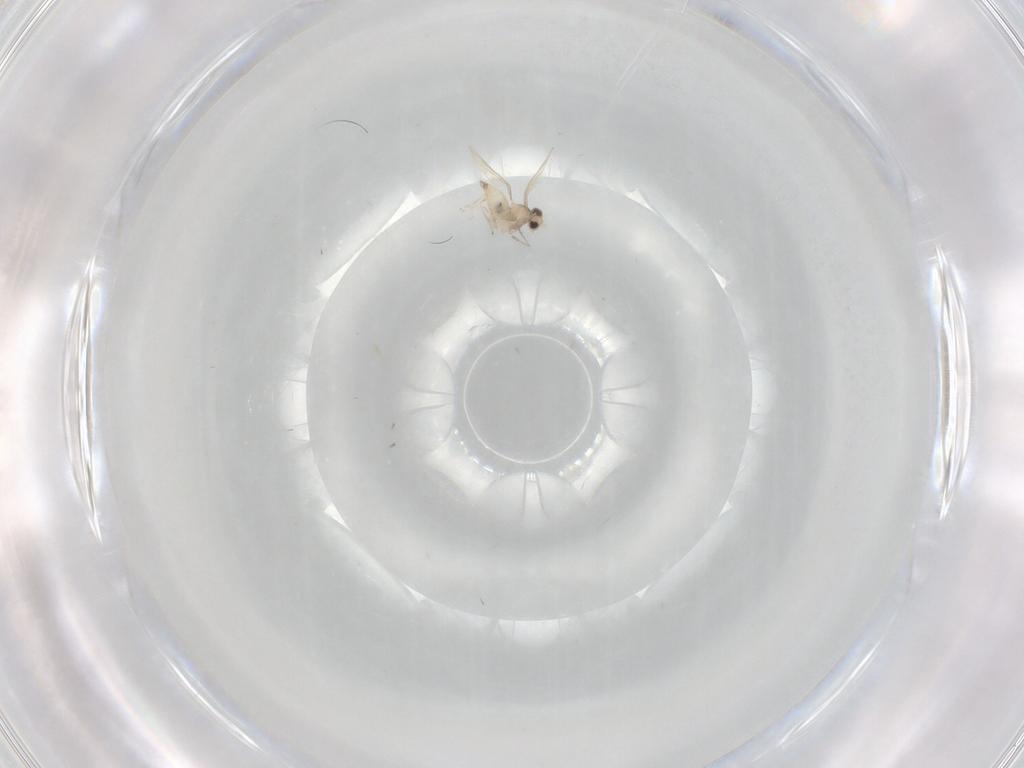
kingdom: Animalia
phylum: Arthropoda
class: Insecta
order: Diptera
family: Cecidomyiidae
